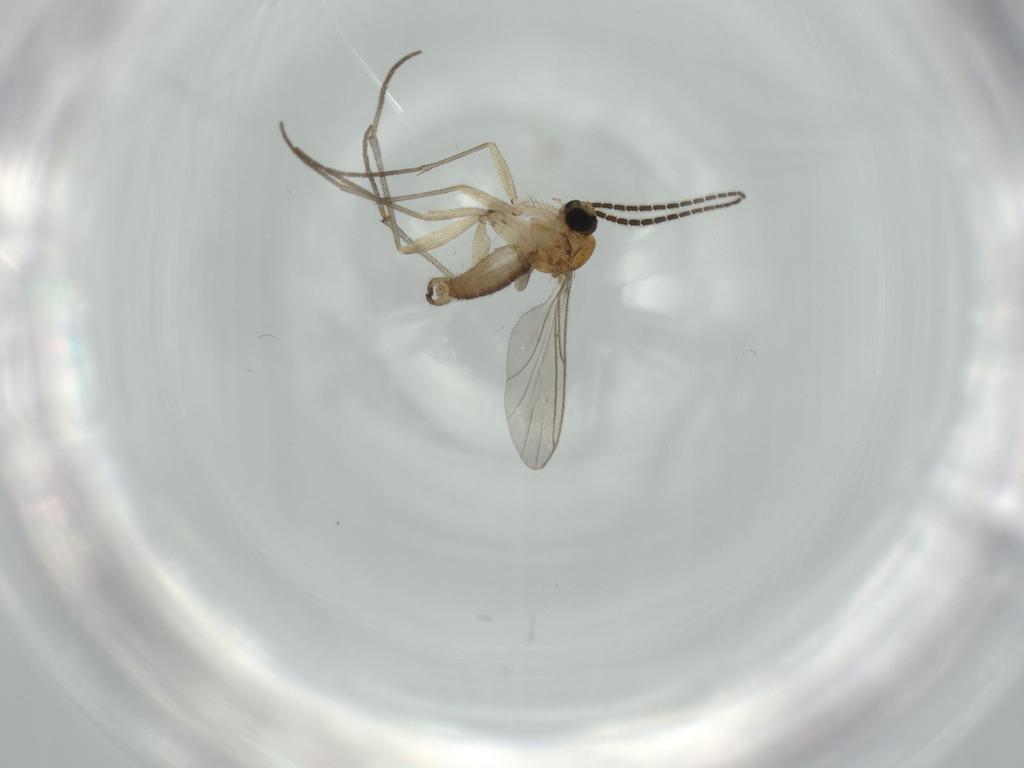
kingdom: Animalia
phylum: Arthropoda
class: Insecta
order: Diptera
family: Sciaridae
